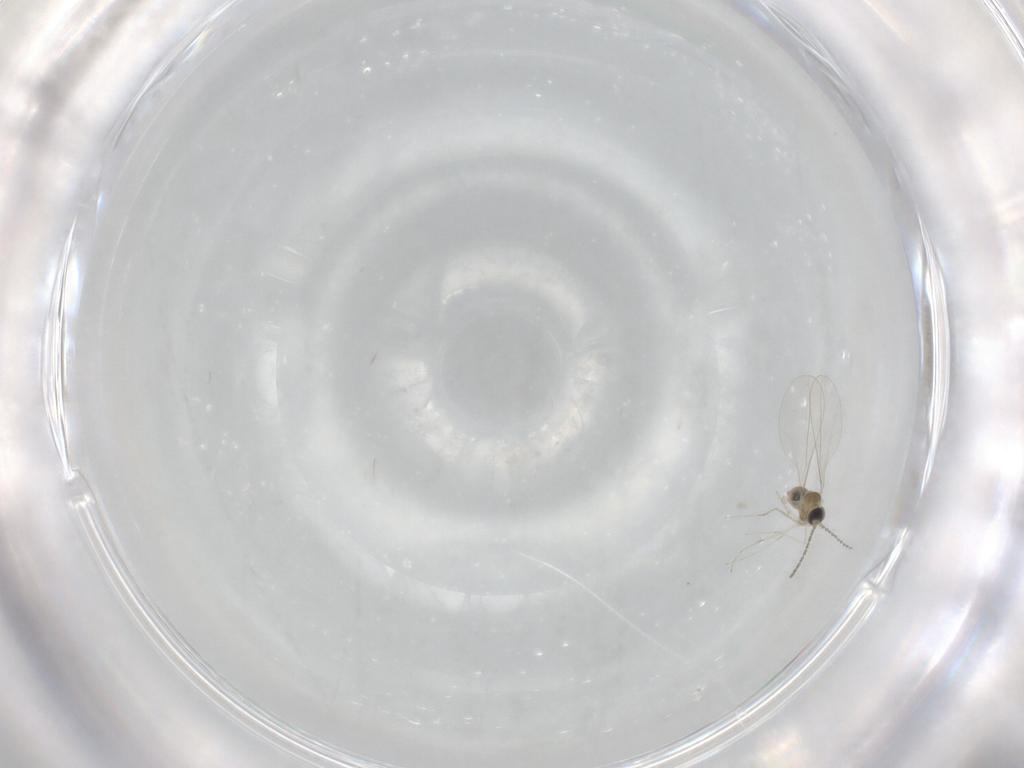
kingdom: Animalia
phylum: Arthropoda
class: Insecta
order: Diptera
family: Cecidomyiidae
